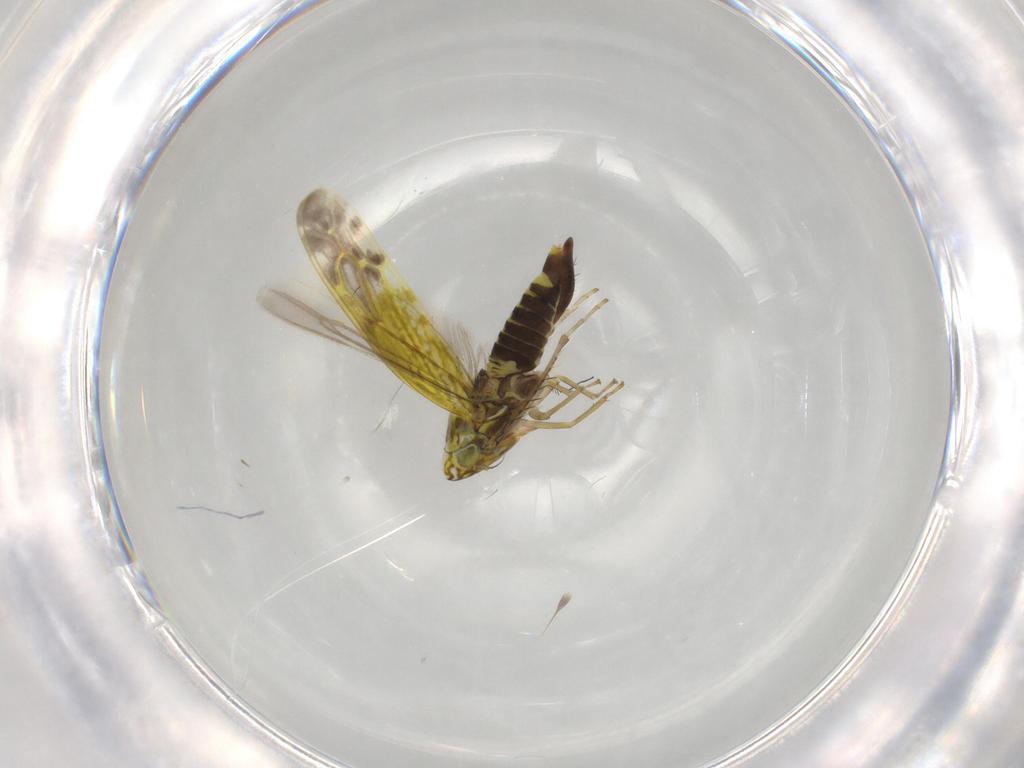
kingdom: Animalia
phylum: Arthropoda
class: Insecta
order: Hemiptera
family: Cicadellidae
